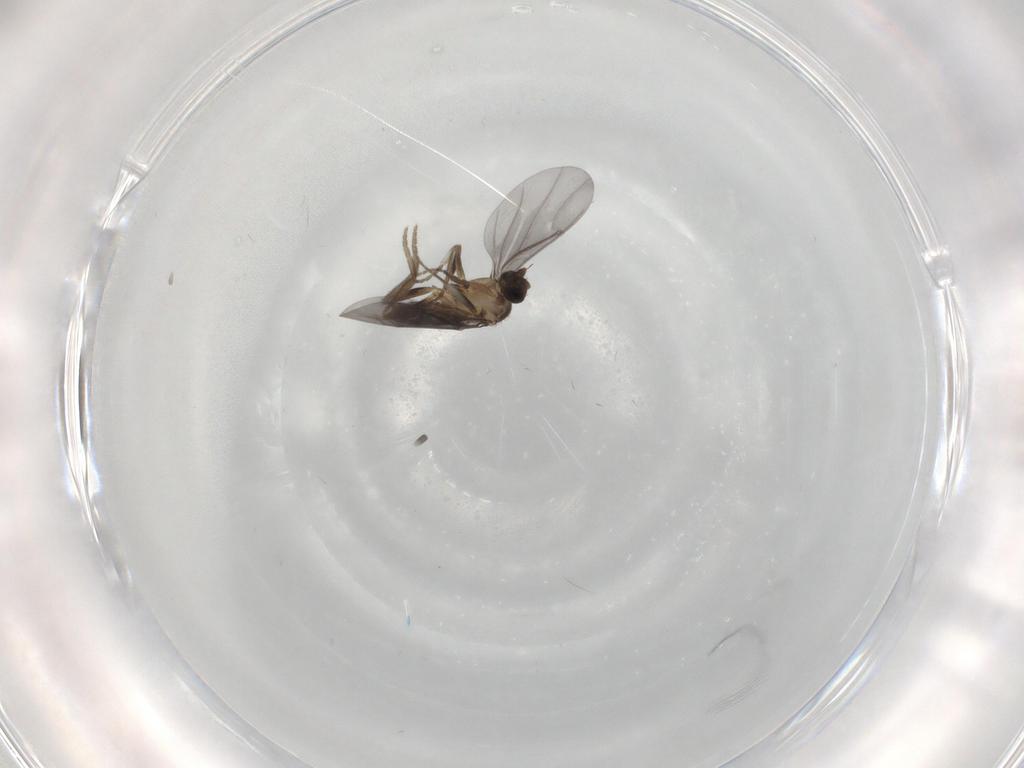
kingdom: Animalia
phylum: Arthropoda
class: Insecta
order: Diptera
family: Phoridae
